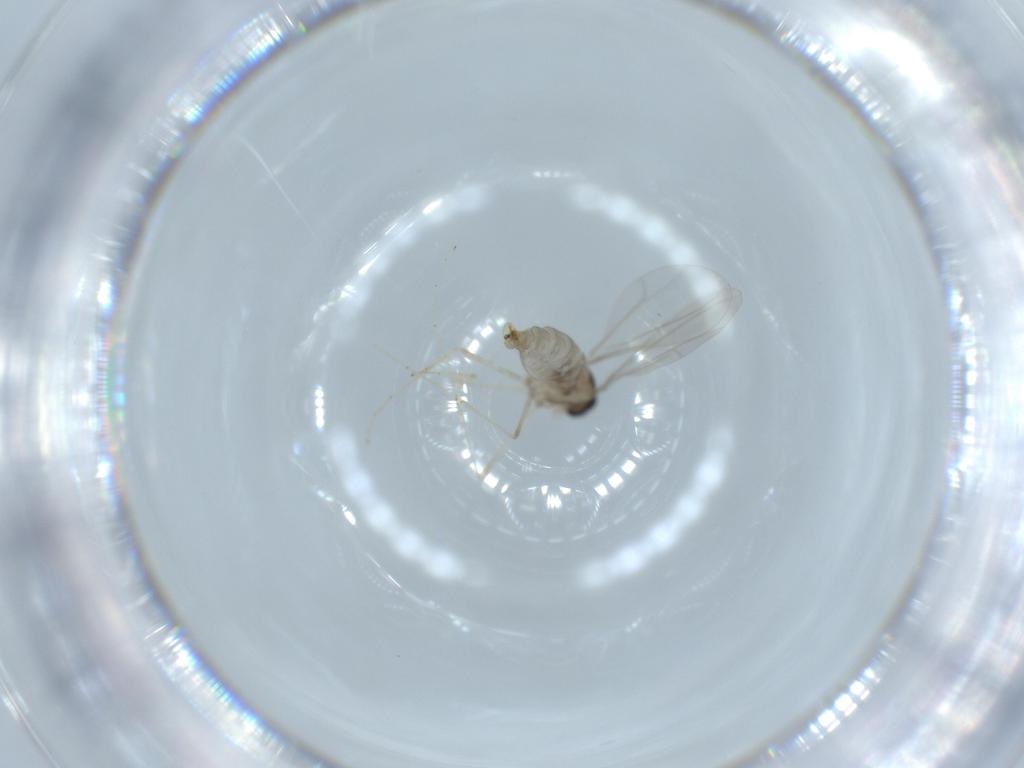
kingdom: Animalia
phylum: Arthropoda
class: Insecta
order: Diptera
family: Cecidomyiidae
